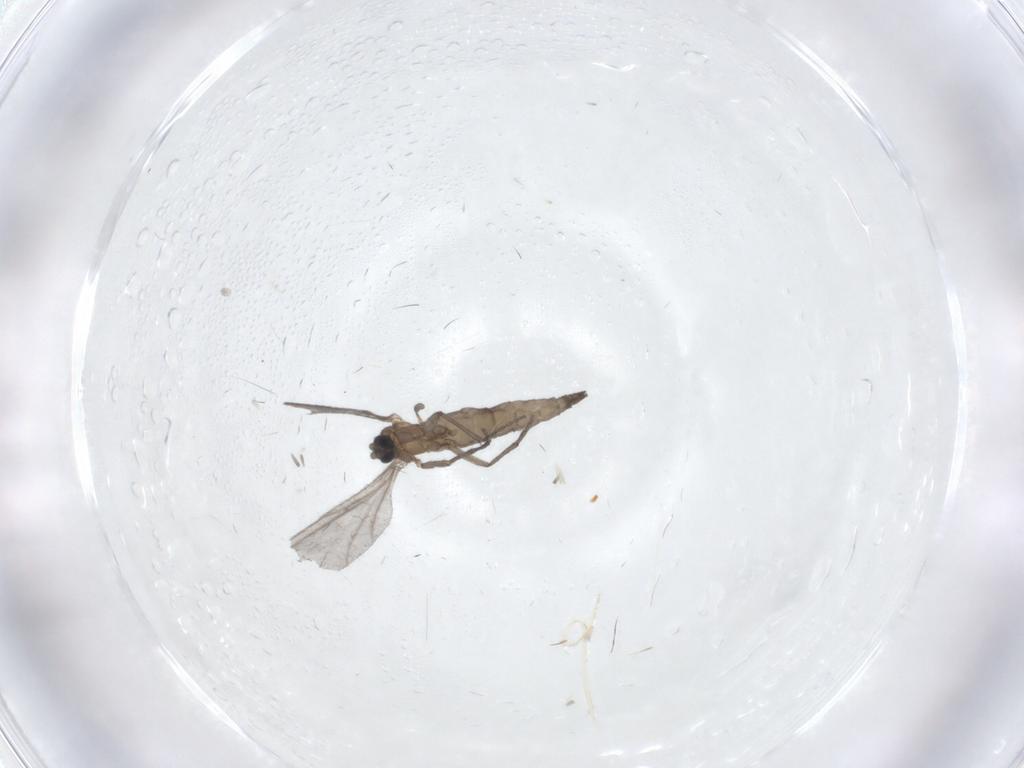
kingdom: Animalia
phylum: Arthropoda
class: Insecta
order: Diptera
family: Sciaridae
